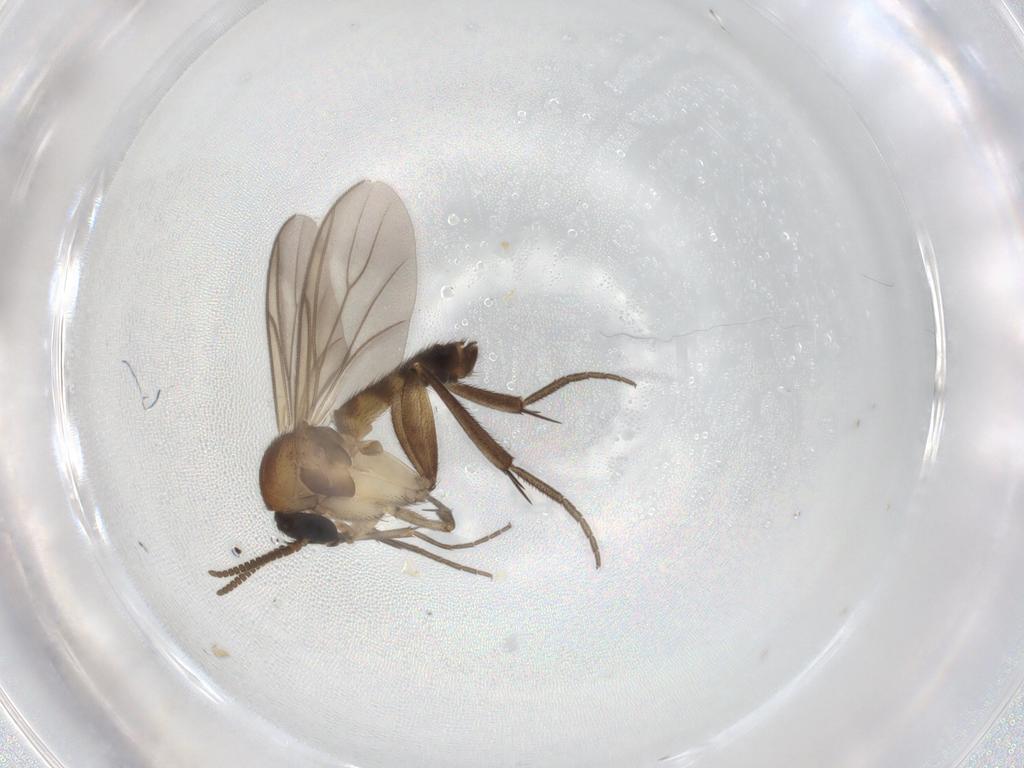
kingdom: Animalia
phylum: Arthropoda
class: Insecta
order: Diptera
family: Mycetophilidae
